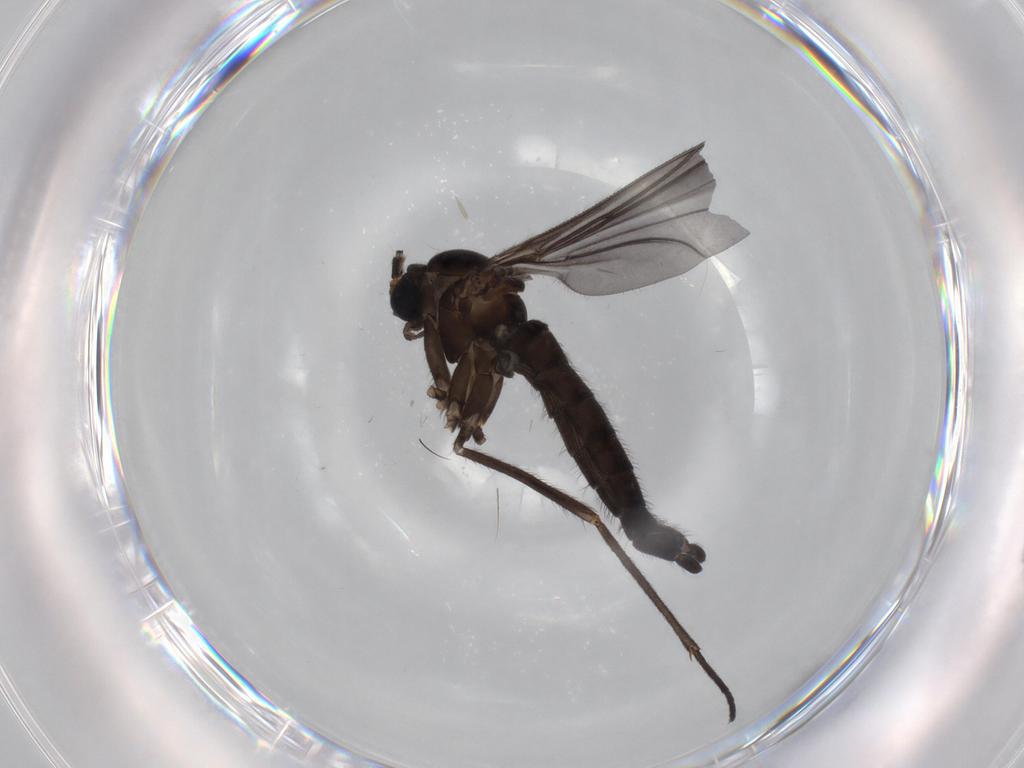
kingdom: Animalia
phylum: Arthropoda
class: Insecta
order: Diptera
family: Phoridae
